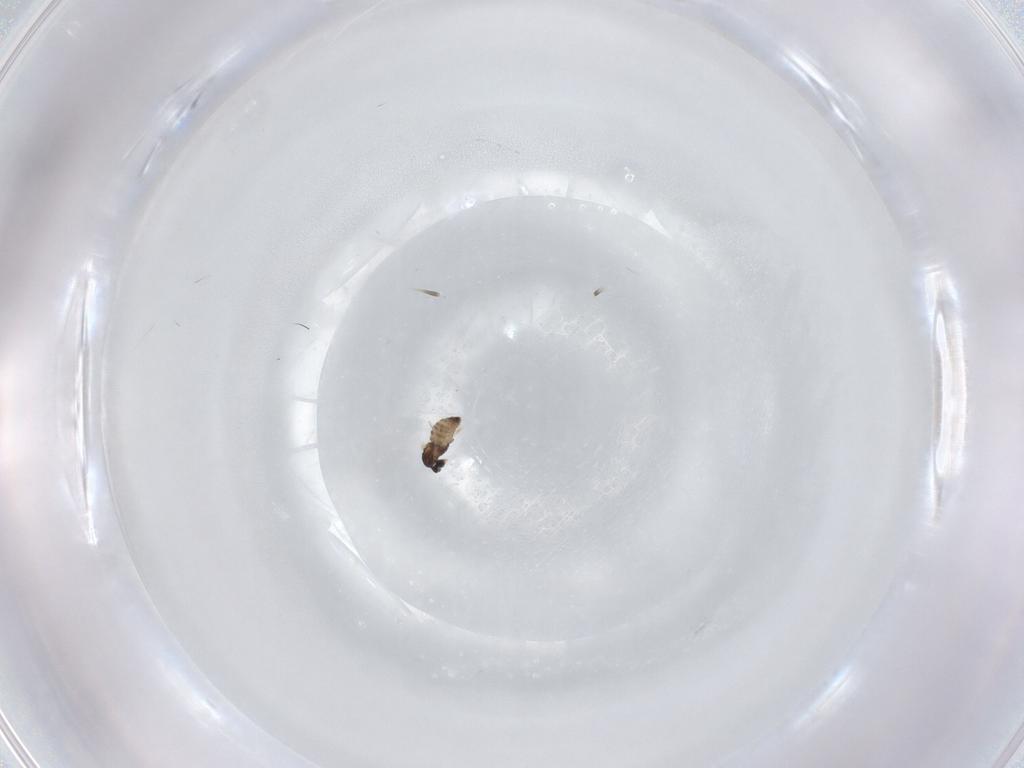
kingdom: Animalia
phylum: Arthropoda
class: Insecta
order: Diptera
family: Cecidomyiidae
